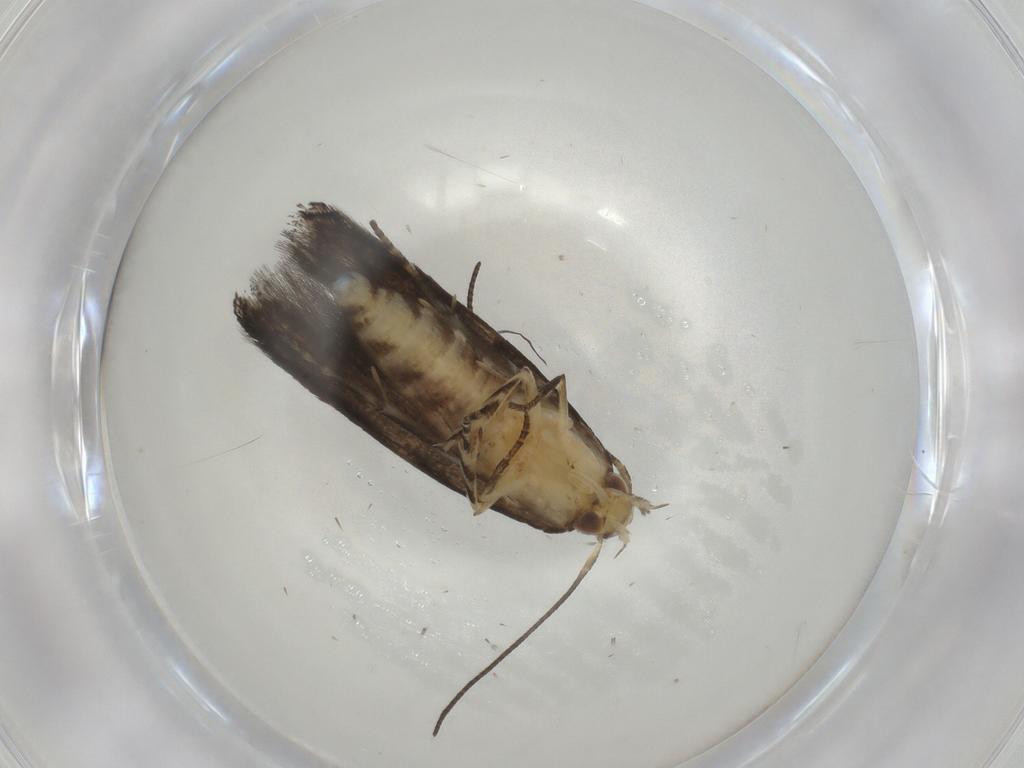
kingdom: Animalia
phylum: Arthropoda
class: Insecta
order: Lepidoptera
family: Elachistidae
